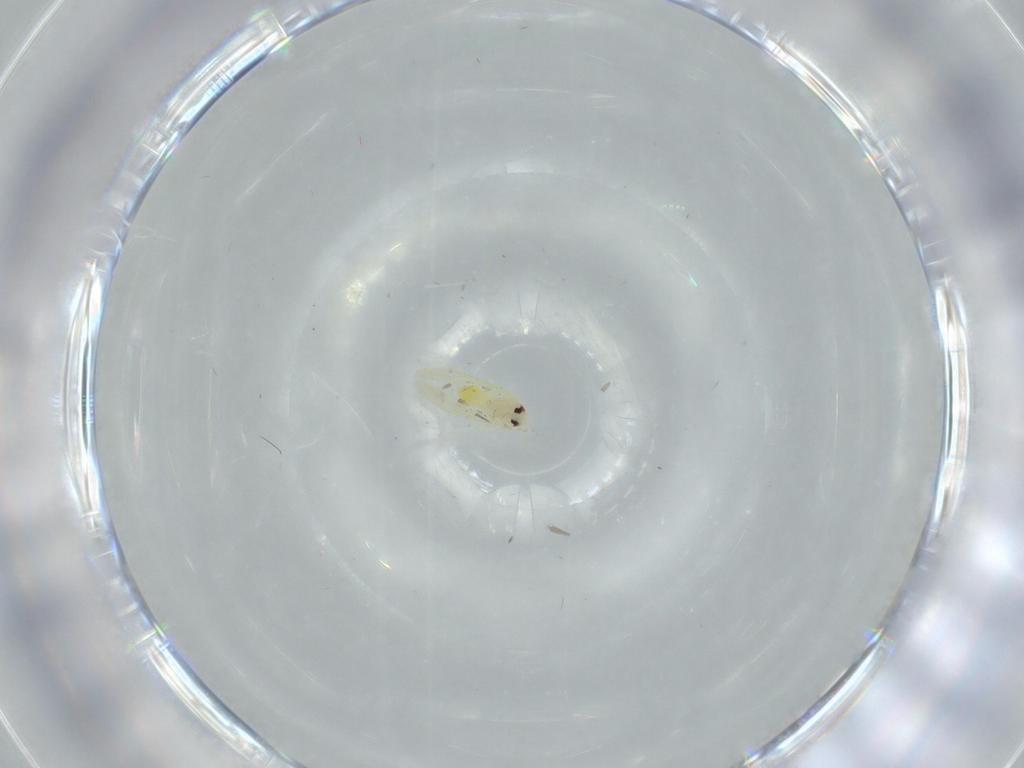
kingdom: Animalia
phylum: Arthropoda
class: Insecta
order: Hemiptera
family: Aleyrodidae
